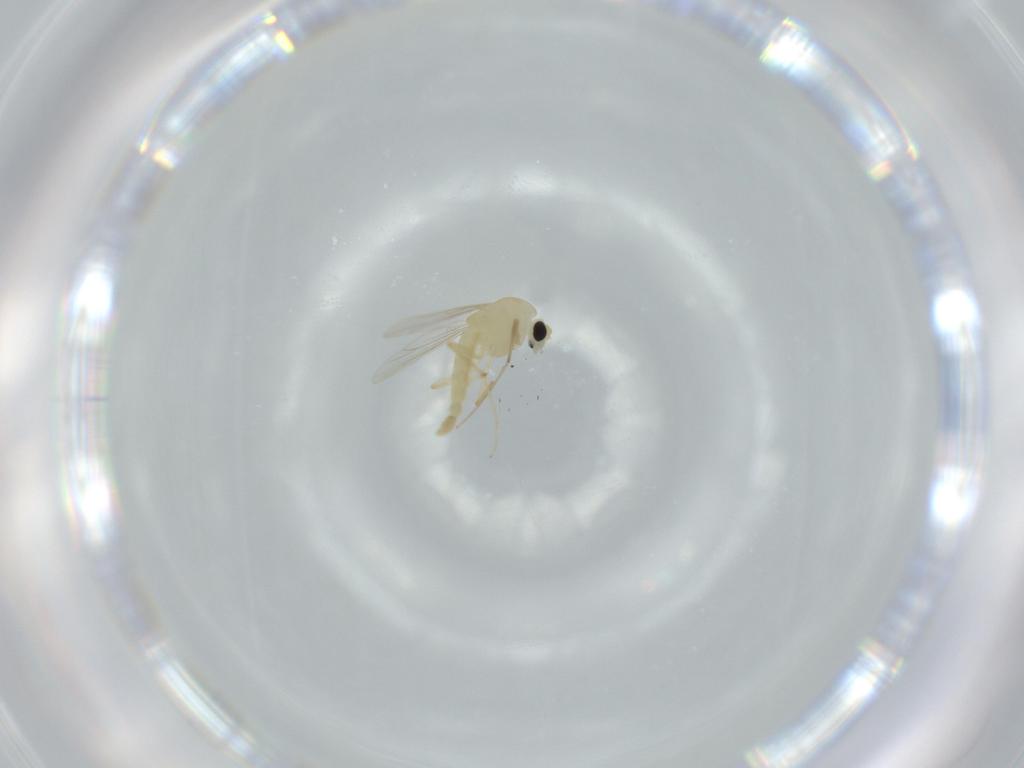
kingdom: Animalia
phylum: Arthropoda
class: Insecta
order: Diptera
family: Chironomidae
